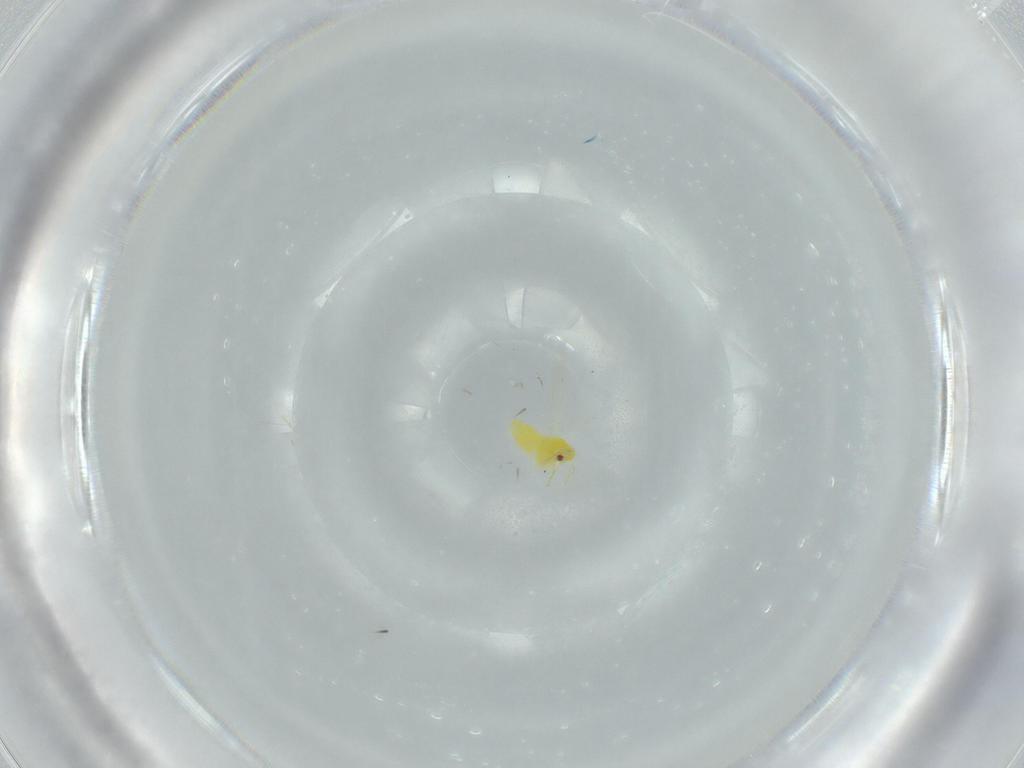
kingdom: Animalia
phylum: Arthropoda
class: Insecta
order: Hemiptera
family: Aleyrodidae
